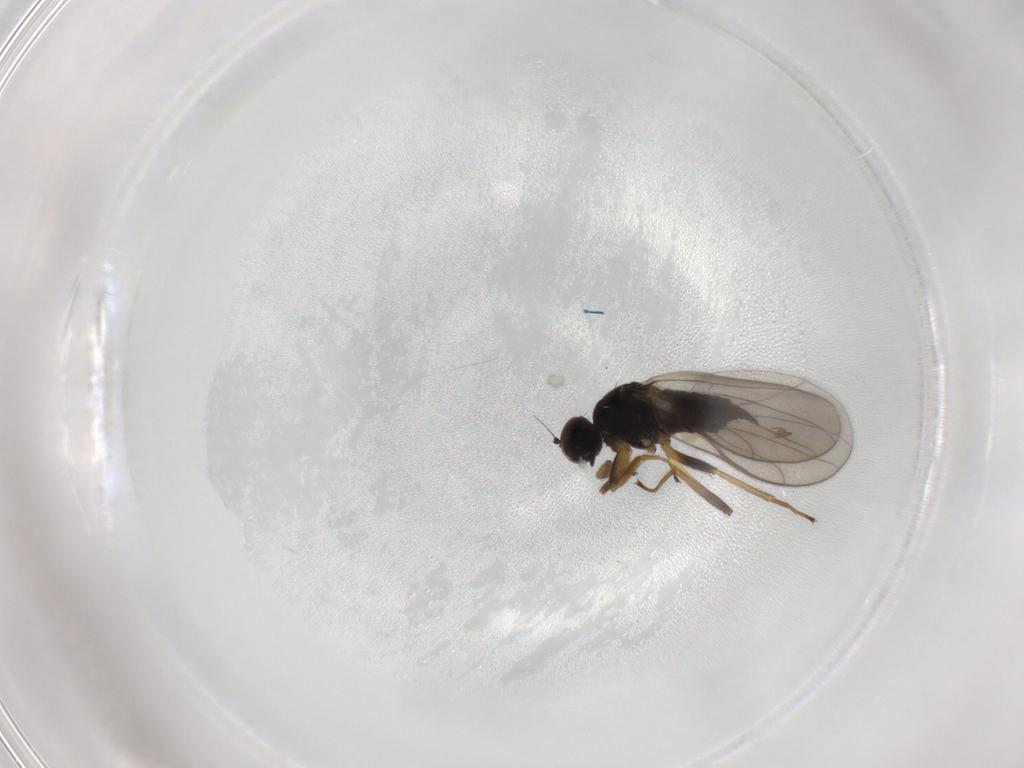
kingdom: Animalia
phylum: Arthropoda
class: Insecta
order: Diptera
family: Hybotidae
